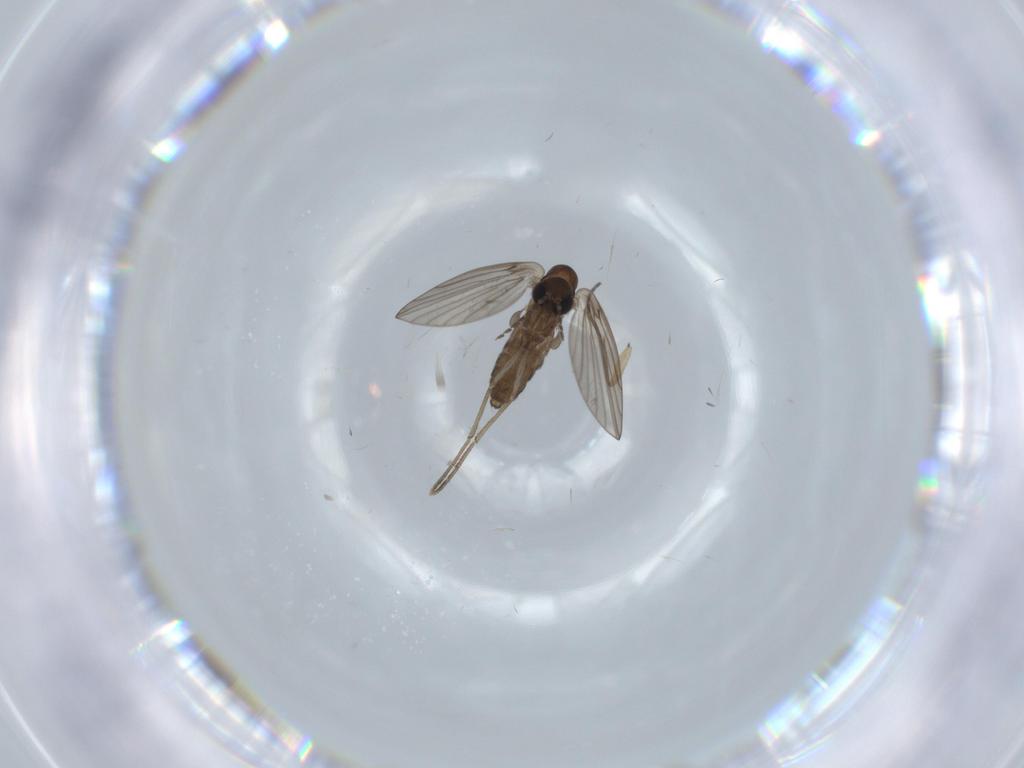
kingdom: Animalia
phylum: Arthropoda
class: Insecta
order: Diptera
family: Psychodidae
